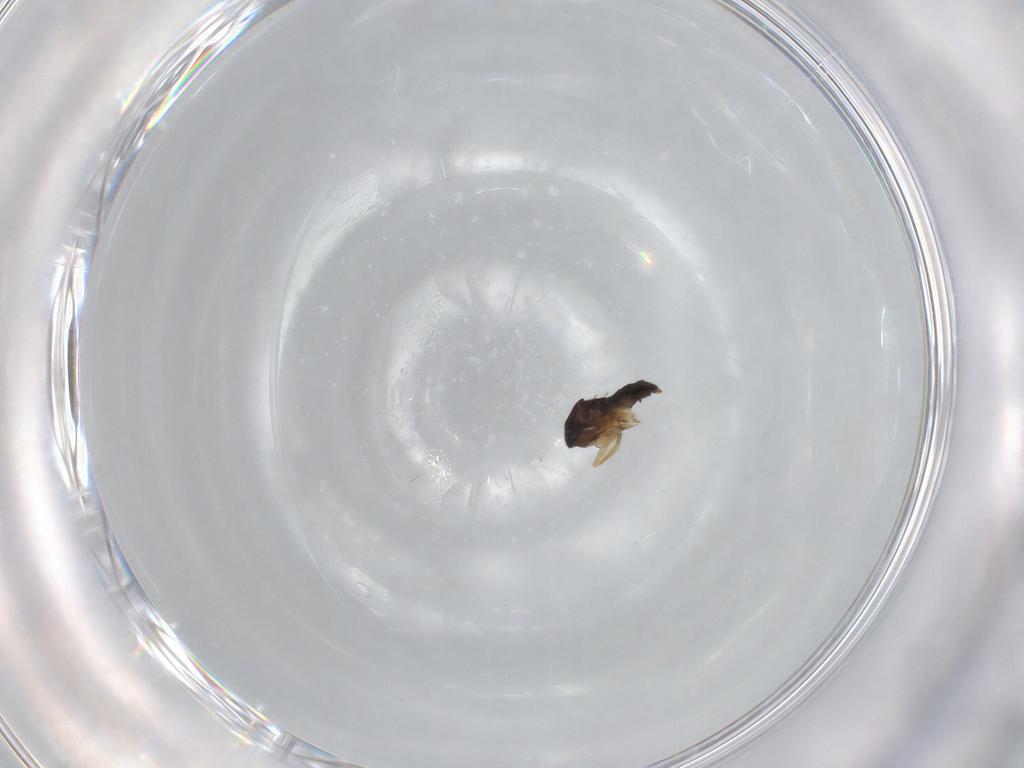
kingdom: Animalia
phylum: Arthropoda
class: Insecta
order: Diptera
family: Phoridae
